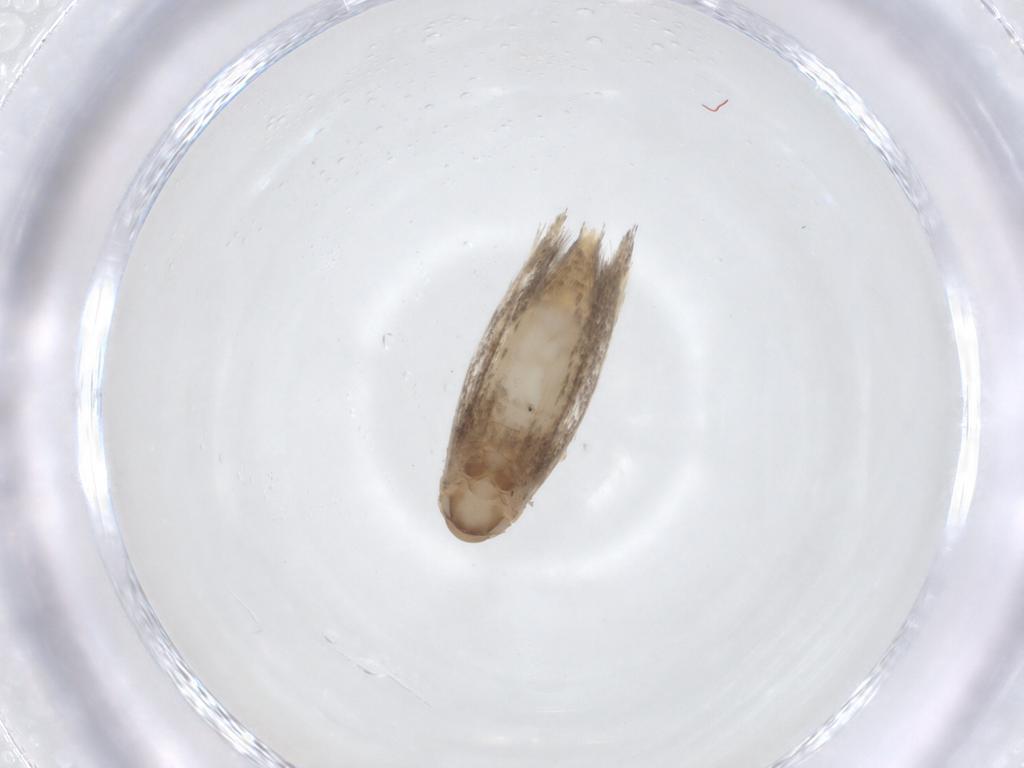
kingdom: Animalia
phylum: Arthropoda
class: Insecta
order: Lepidoptera
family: Elachistidae
